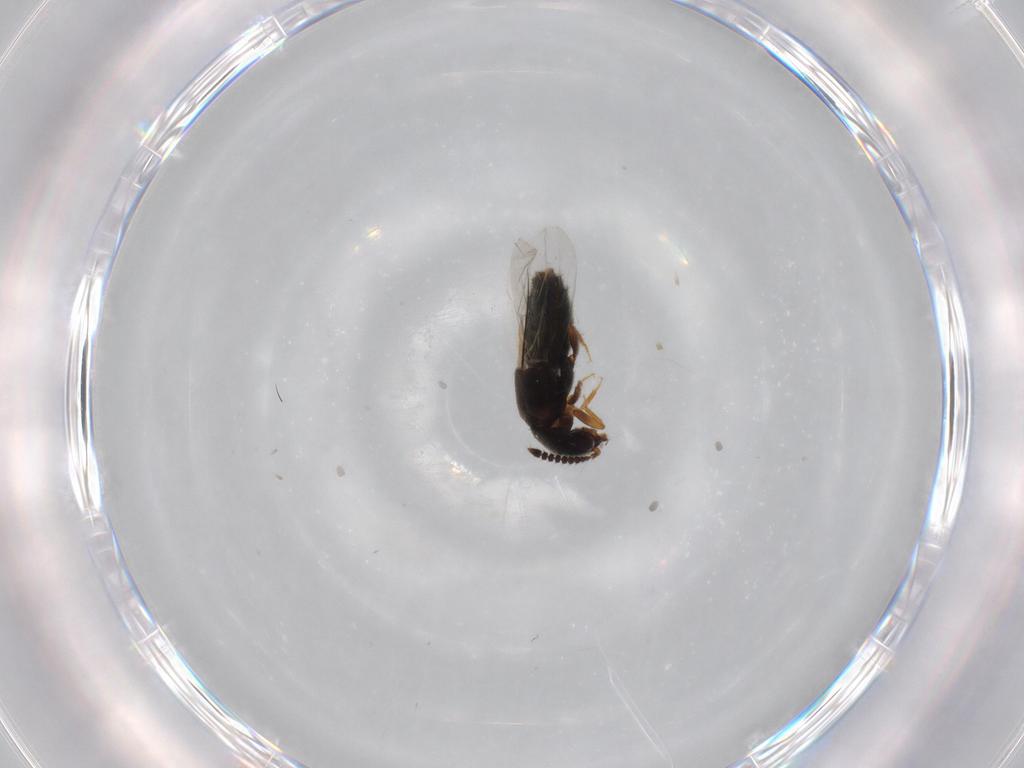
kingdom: Animalia
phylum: Arthropoda
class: Insecta
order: Coleoptera
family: Staphylinidae
